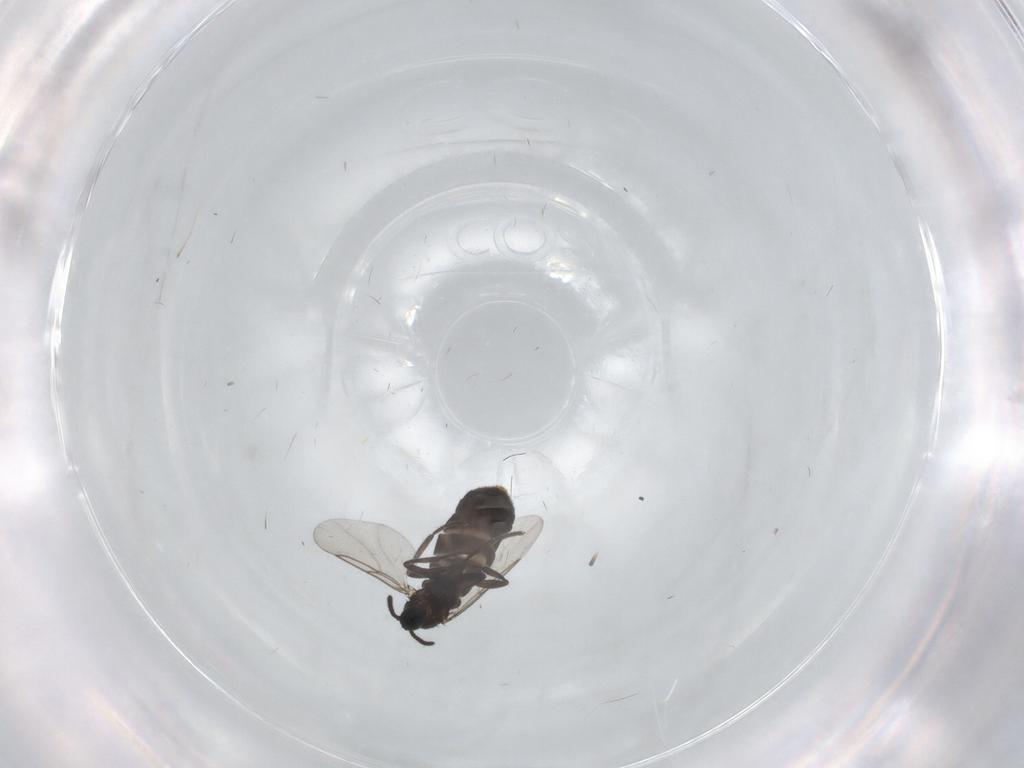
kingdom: Animalia
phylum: Arthropoda
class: Insecta
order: Diptera
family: Scatopsidae
